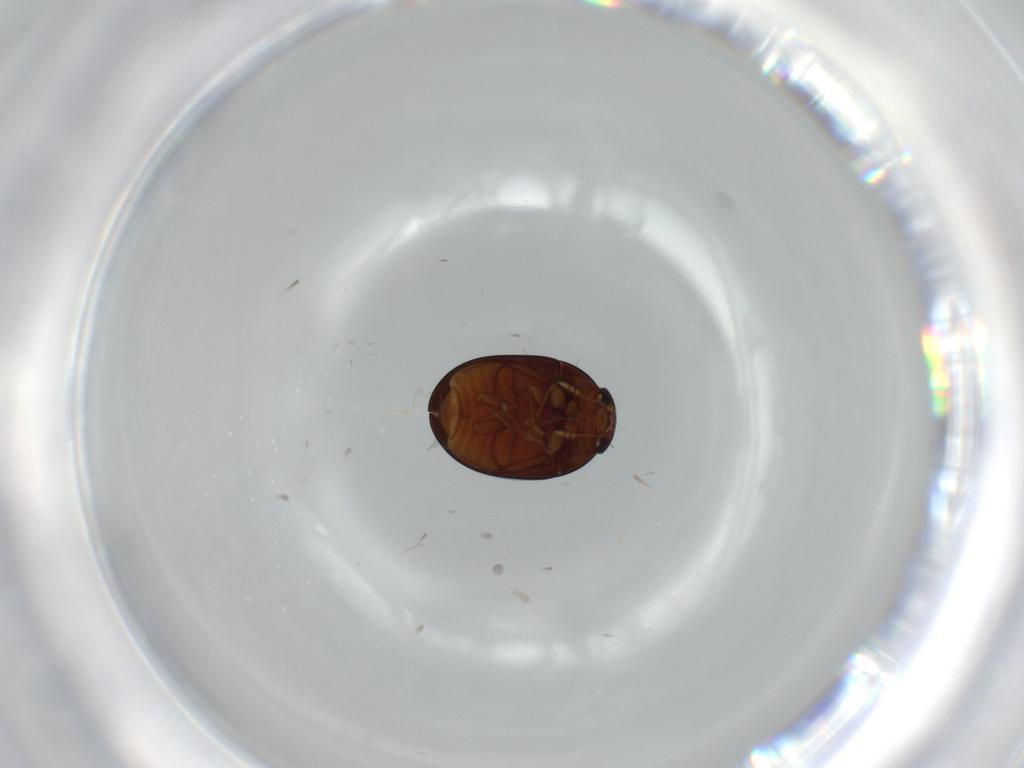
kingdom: Animalia
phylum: Arthropoda
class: Insecta
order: Coleoptera
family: Phalacridae
